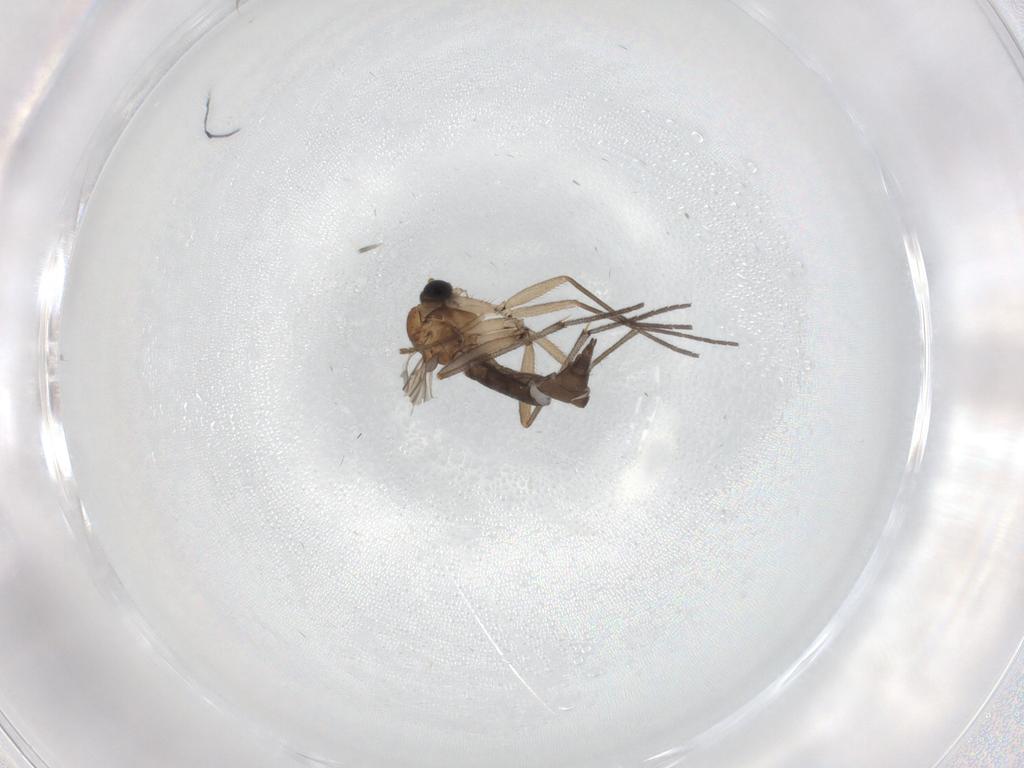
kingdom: Animalia
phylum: Arthropoda
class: Insecta
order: Diptera
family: Sciaridae
